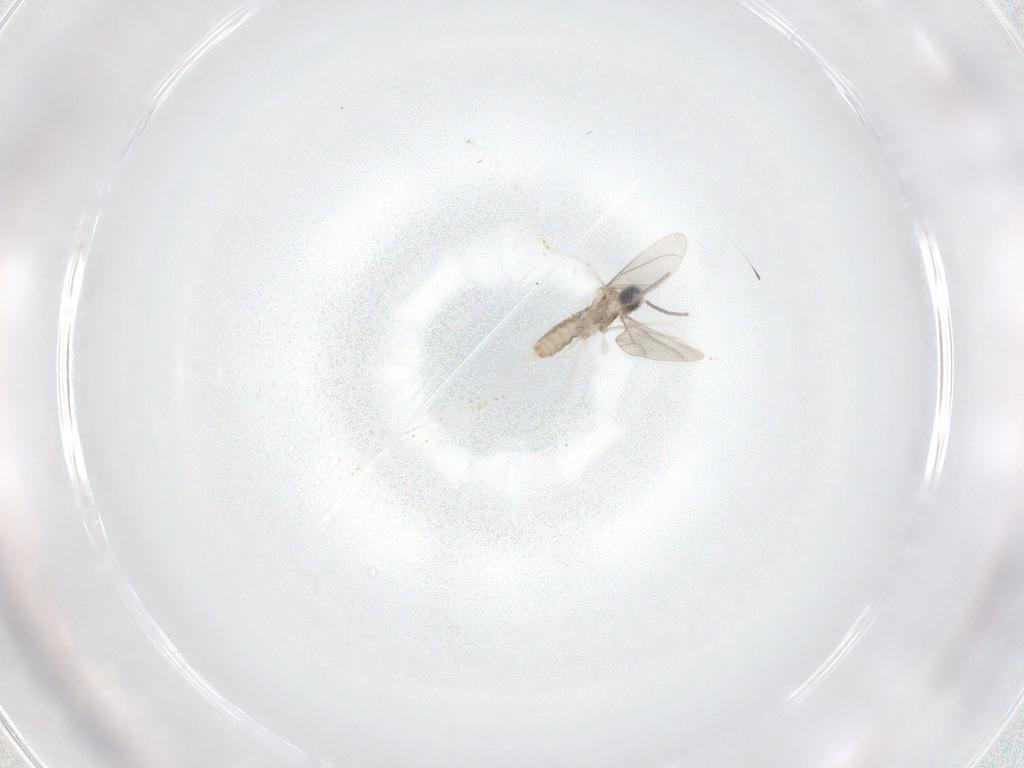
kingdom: Animalia
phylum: Arthropoda
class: Insecta
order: Diptera
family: Cecidomyiidae
